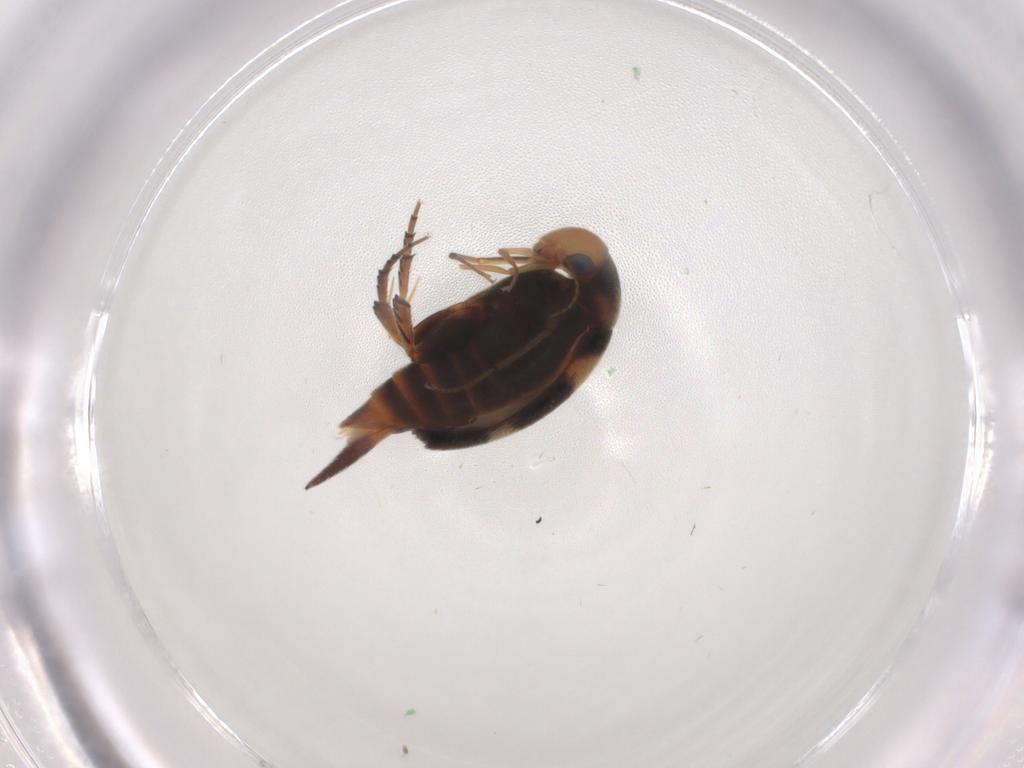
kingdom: Animalia
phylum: Arthropoda
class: Insecta
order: Coleoptera
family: Mordellidae
